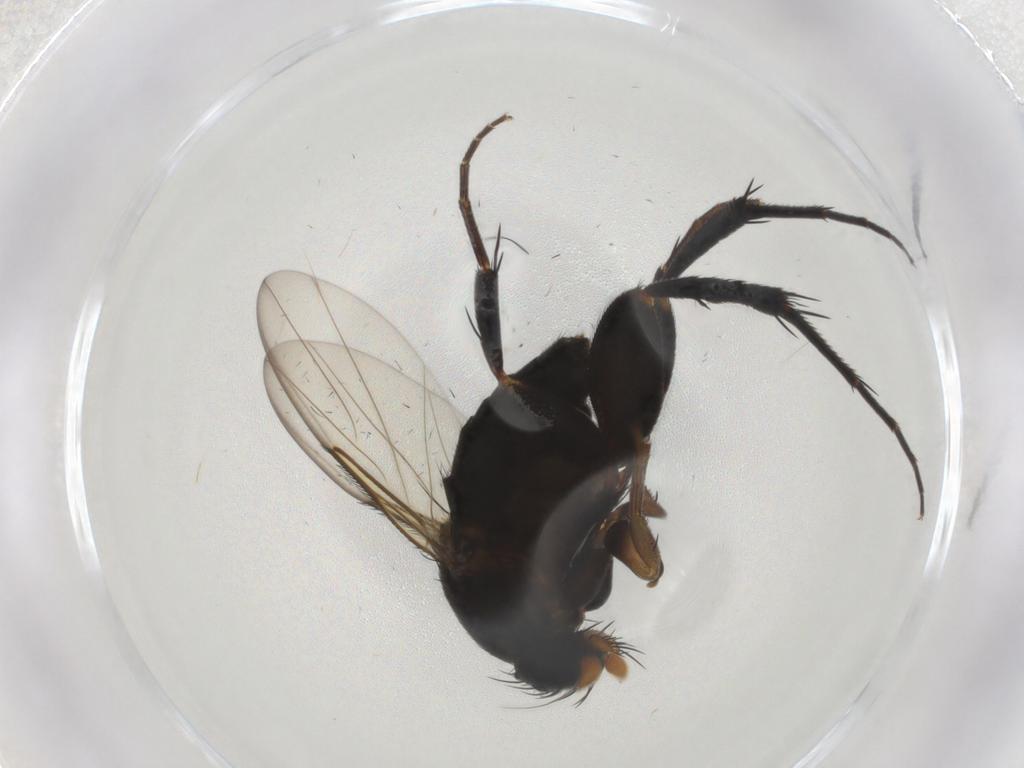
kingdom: Animalia
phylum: Arthropoda
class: Insecta
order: Diptera
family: Phoridae
